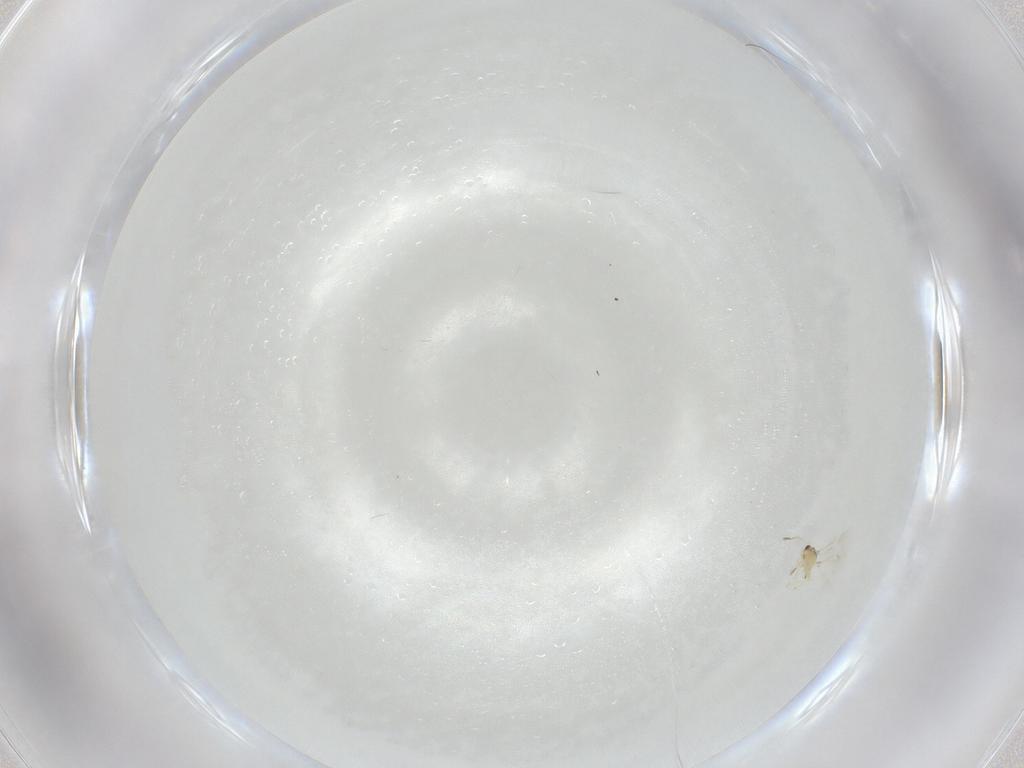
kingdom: Animalia
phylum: Arthropoda
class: Insecta
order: Hymenoptera
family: Mymaridae
